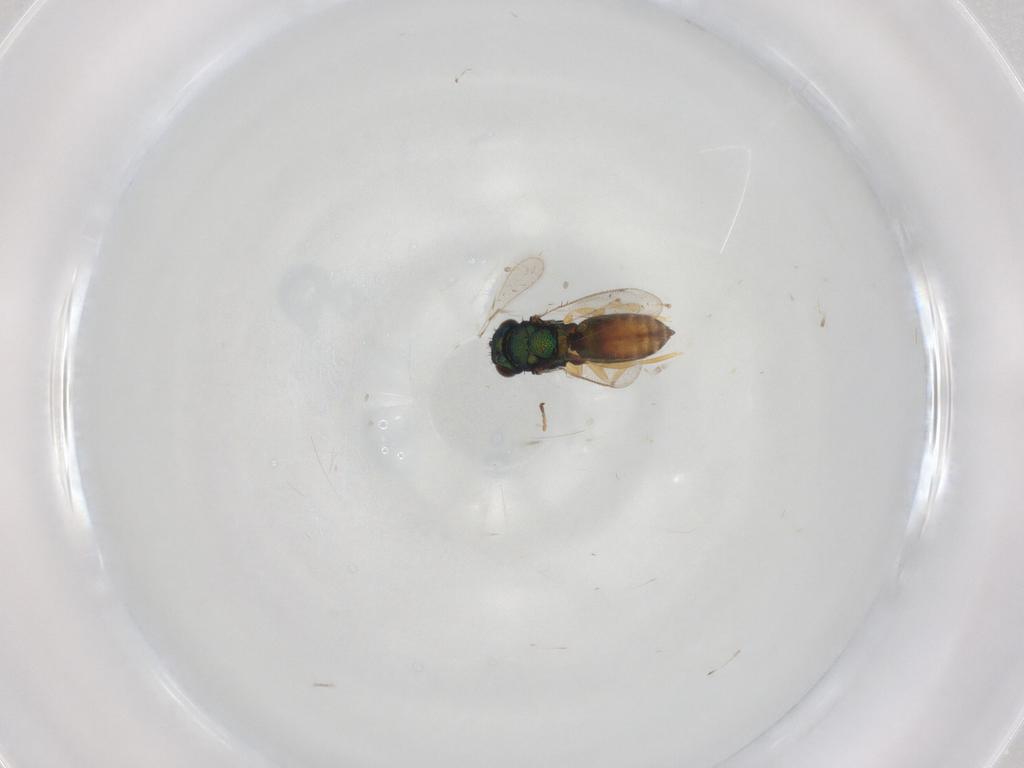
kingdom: Animalia
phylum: Arthropoda
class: Insecta
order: Hymenoptera
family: Eulophidae
